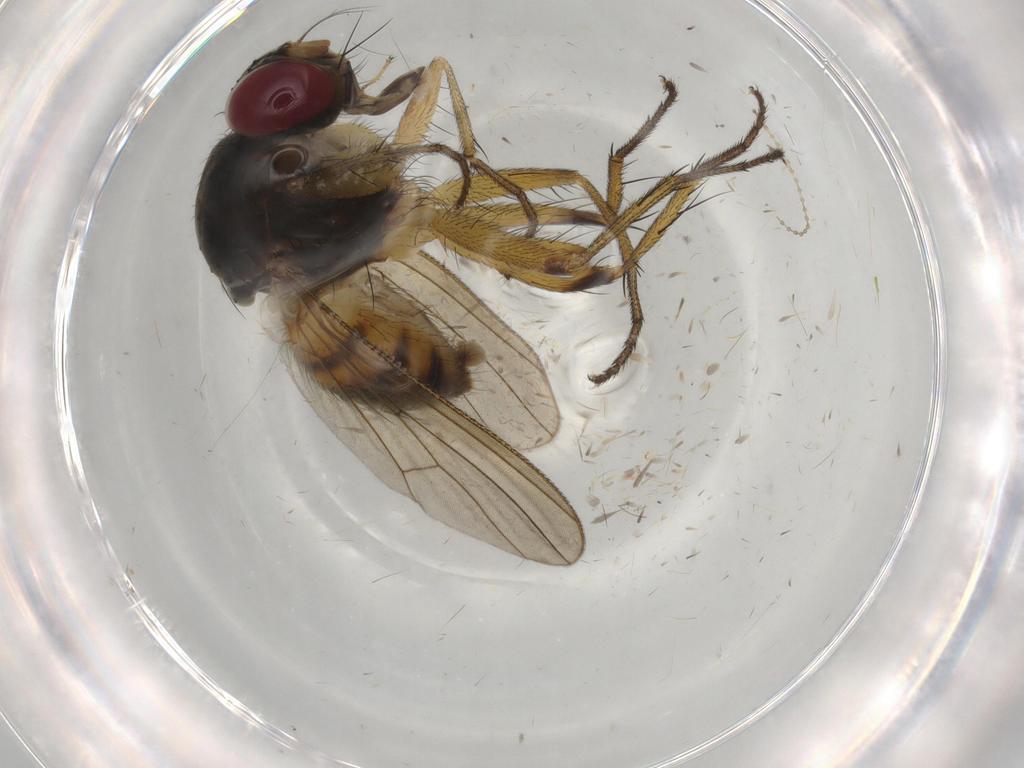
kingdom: Animalia
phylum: Arthropoda
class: Insecta
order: Diptera
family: Muscidae
